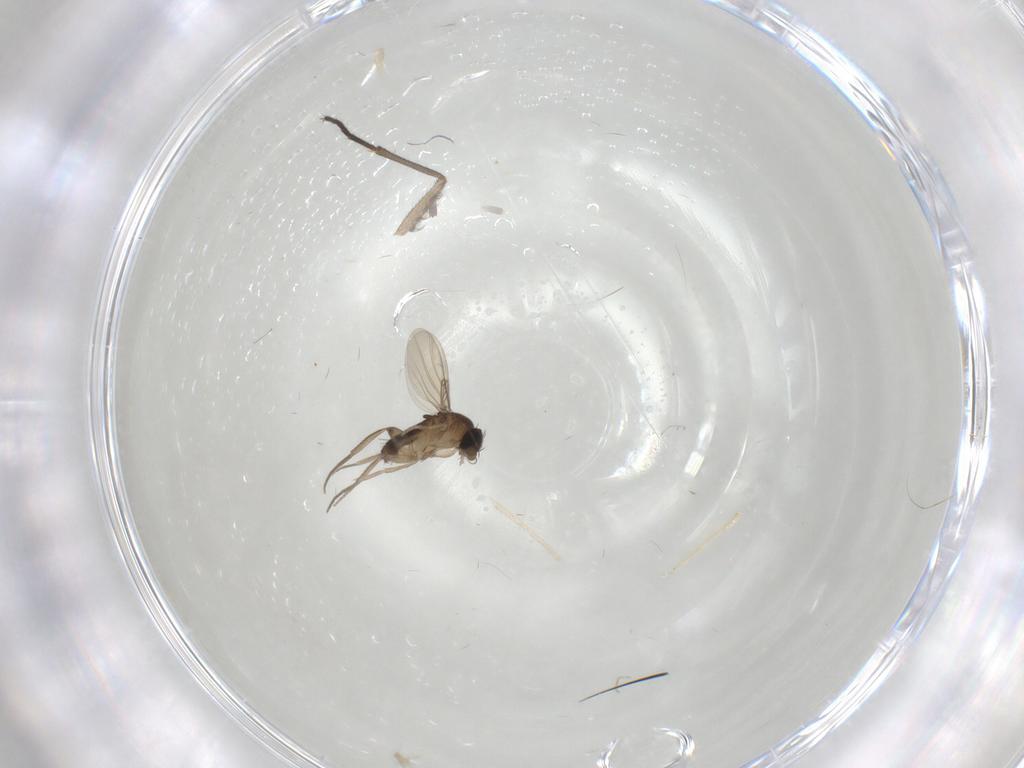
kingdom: Animalia
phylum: Arthropoda
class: Insecta
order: Diptera
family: Phoridae
